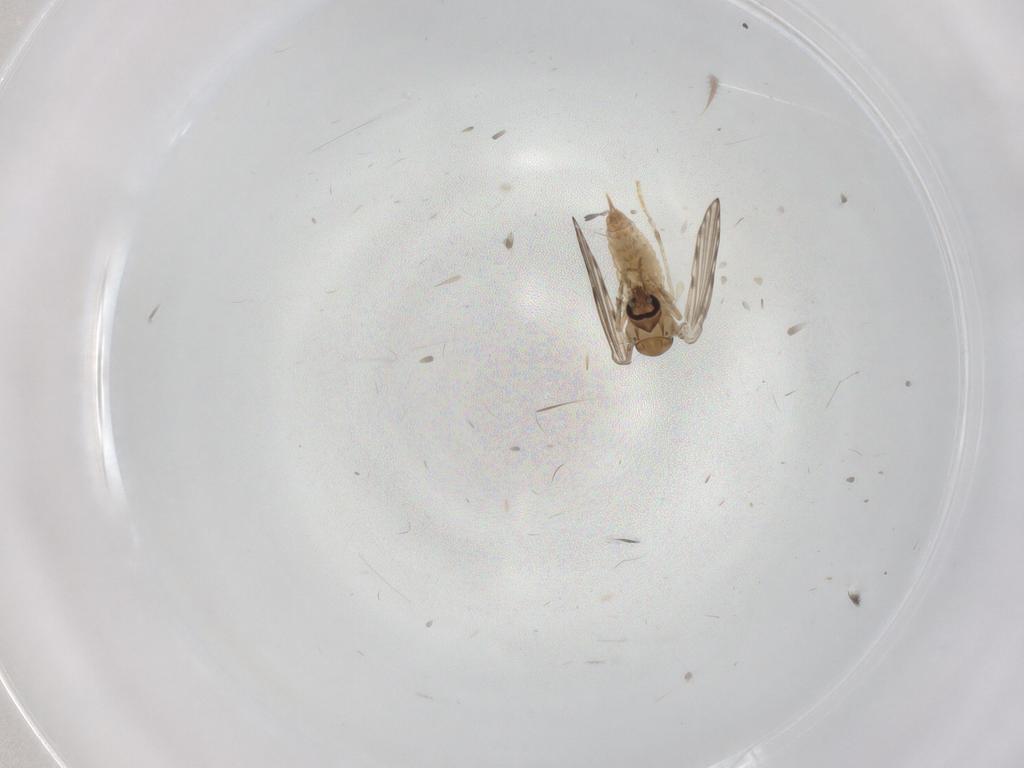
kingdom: Animalia
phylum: Arthropoda
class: Insecta
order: Diptera
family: Psychodidae
